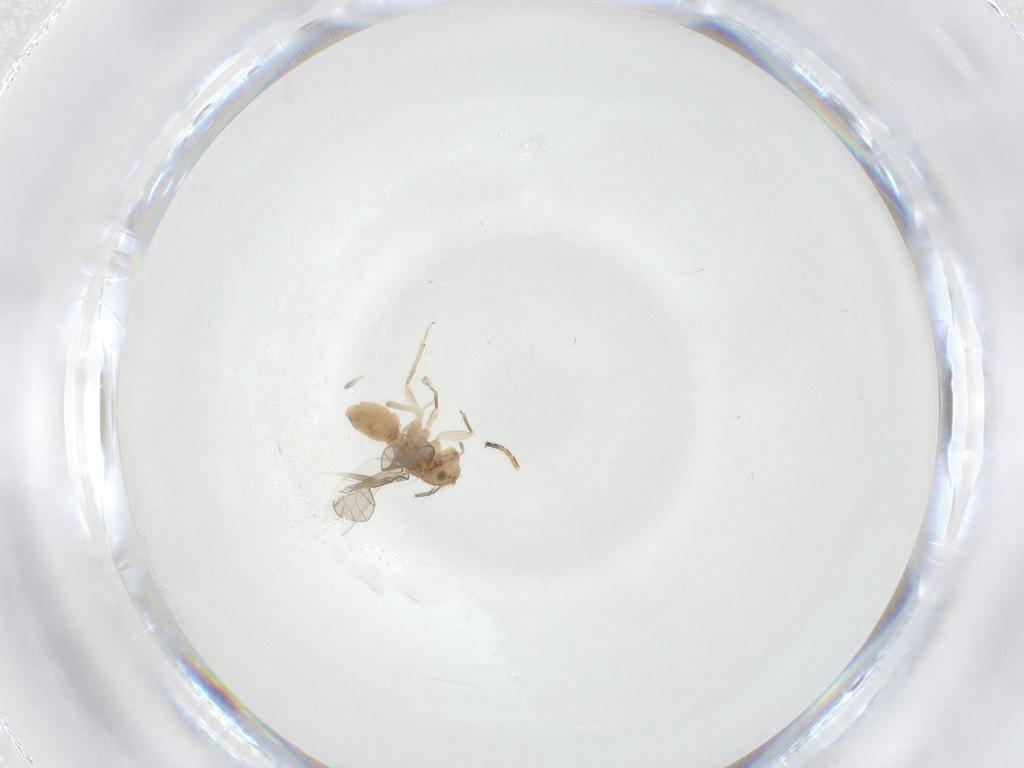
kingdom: Animalia
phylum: Arthropoda
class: Insecta
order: Psocodea
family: Ectopsocidae
